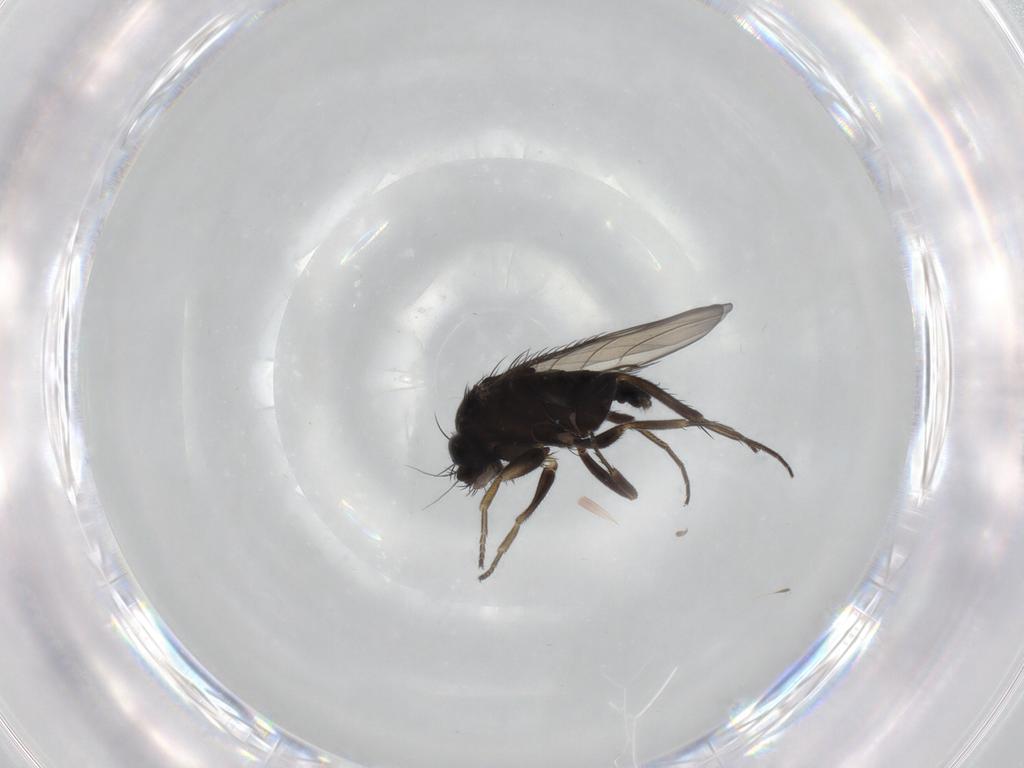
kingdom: Animalia
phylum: Arthropoda
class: Insecta
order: Diptera
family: Phoridae
